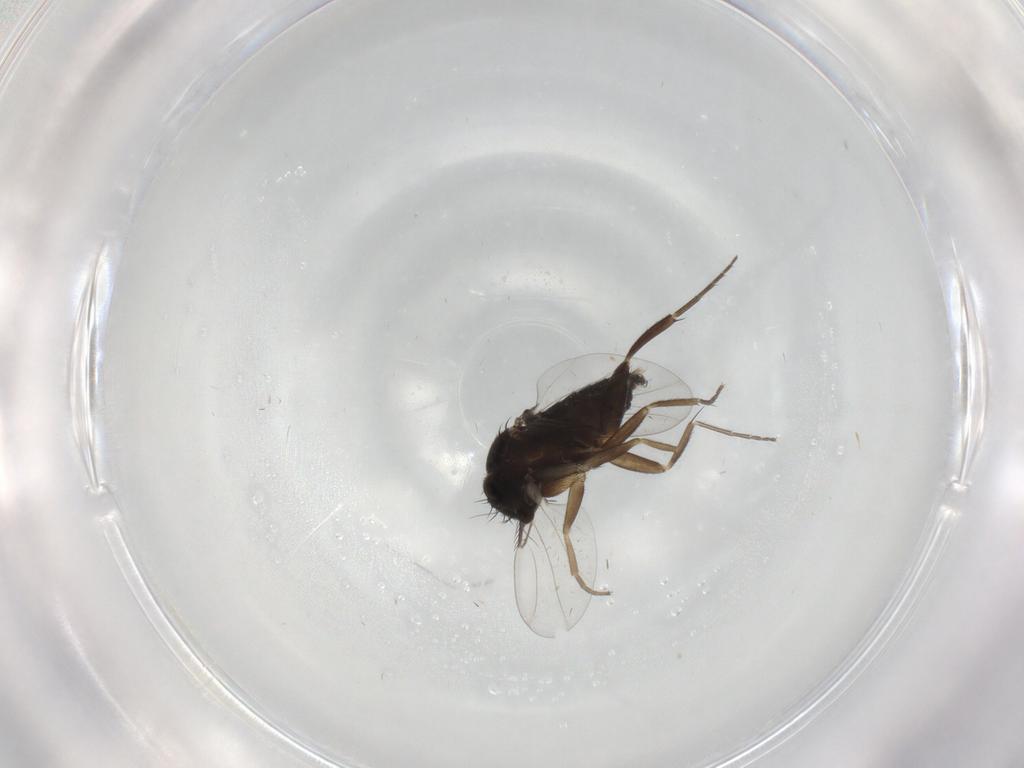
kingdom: Animalia
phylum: Arthropoda
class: Insecta
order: Diptera
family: Phoridae
